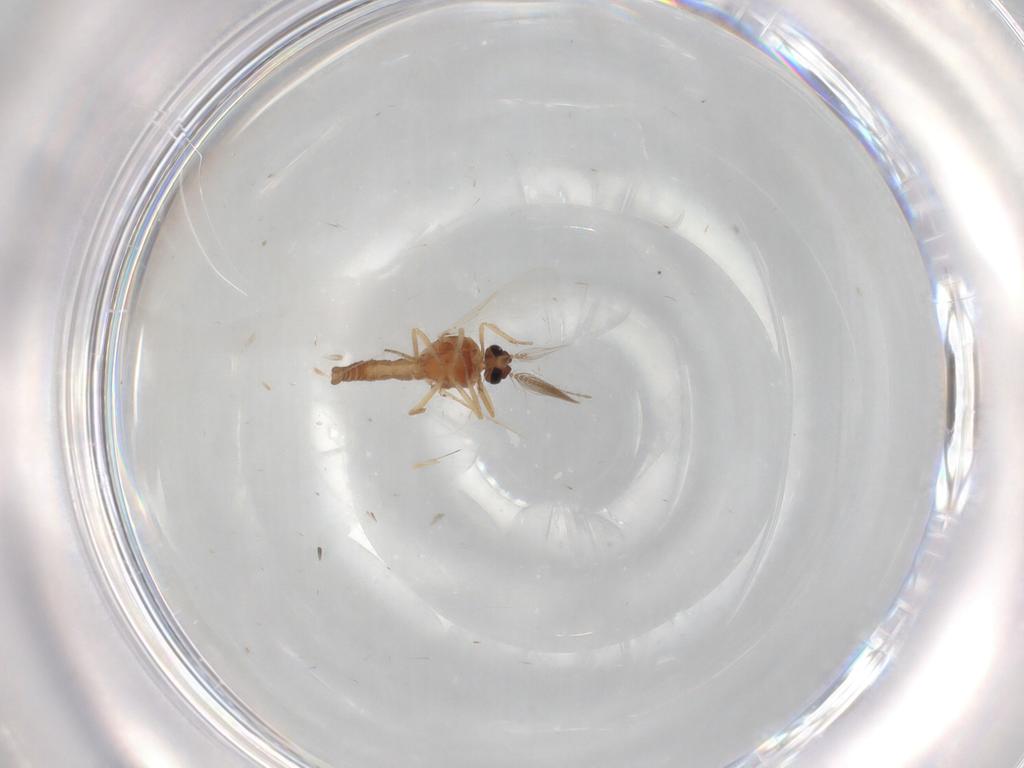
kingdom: Animalia
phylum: Arthropoda
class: Insecta
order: Diptera
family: Ceratopogonidae
